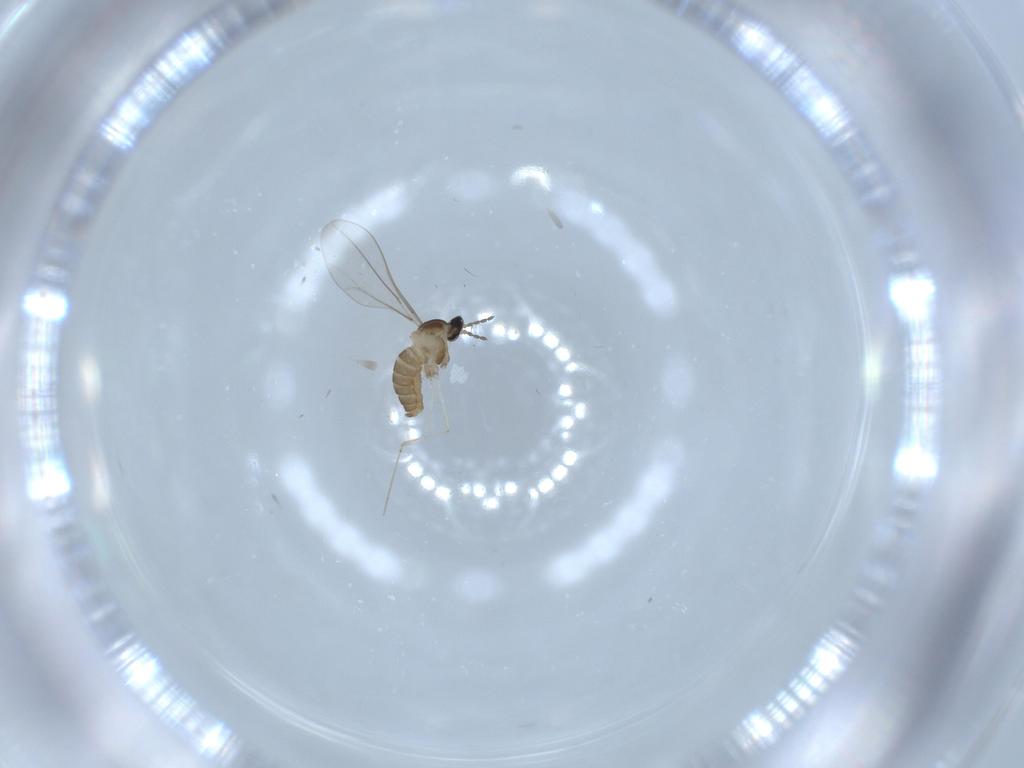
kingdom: Animalia
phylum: Arthropoda
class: Insecta
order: Diptera
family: Cecidomyiidae
